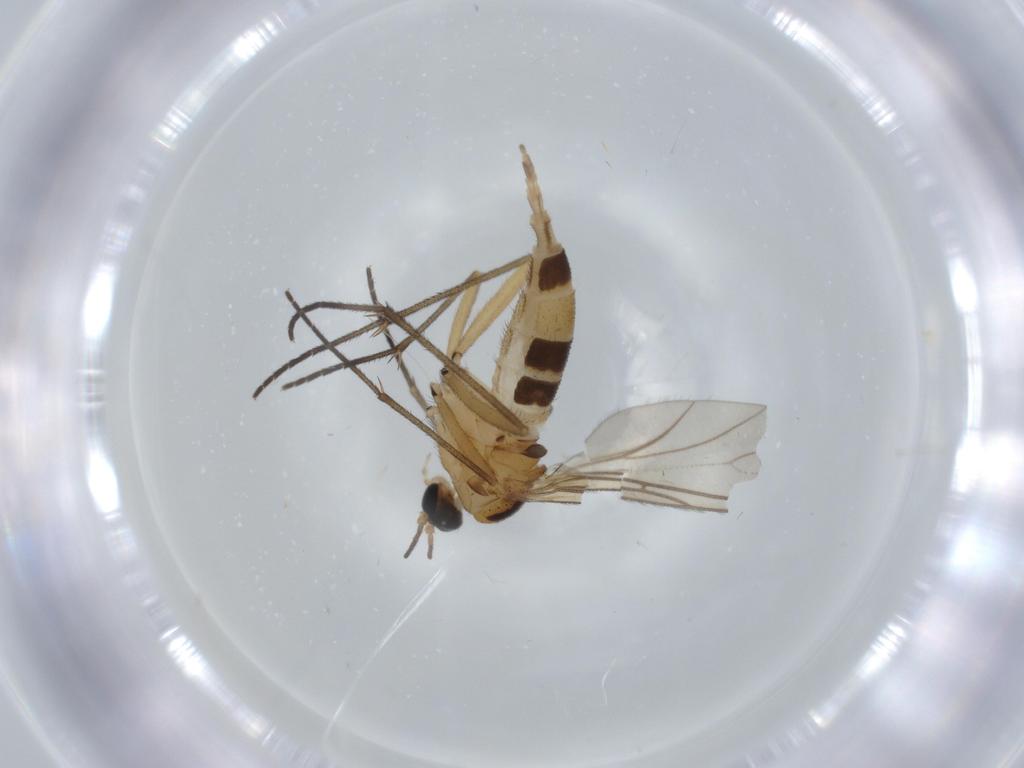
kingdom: Animalia
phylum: Arthropoda
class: Insecta
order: Diptera
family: Sciaridae
